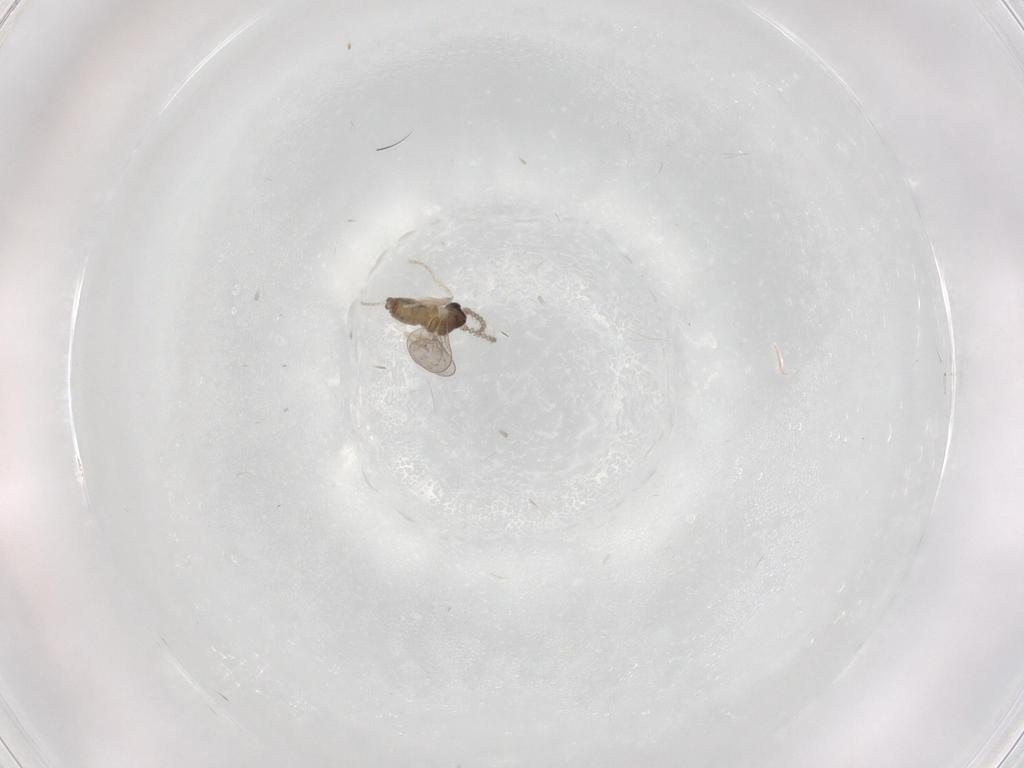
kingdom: Animalia
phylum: Arthropoda
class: Insecta
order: Diptera
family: Cecidomyiidae
